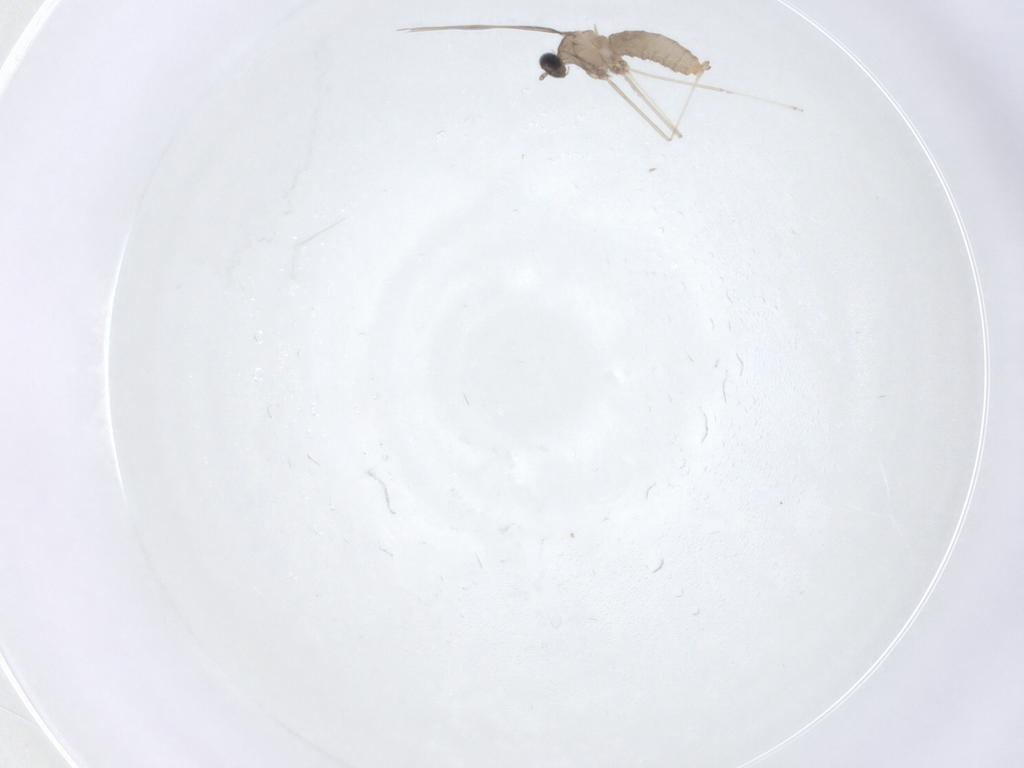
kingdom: Animalia
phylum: Arthropoda
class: Insecta
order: Diptera
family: Cecidomyiidae
